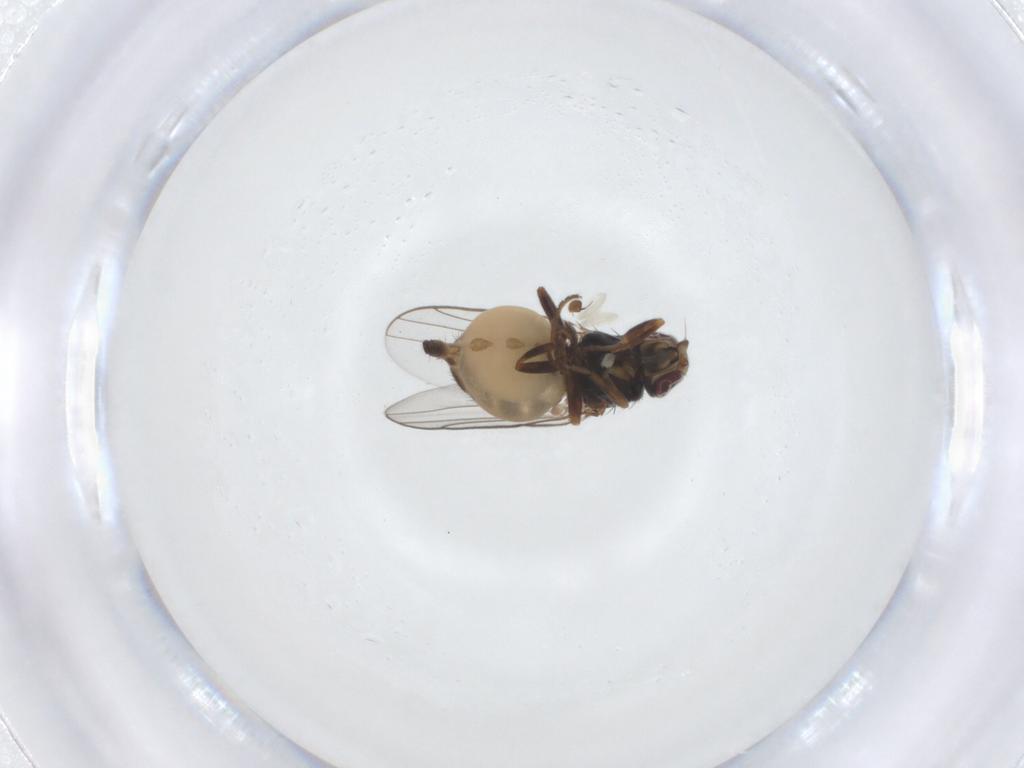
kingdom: Animalia
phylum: Arthropoda
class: Insecta
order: Diptera
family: Chloropidae
